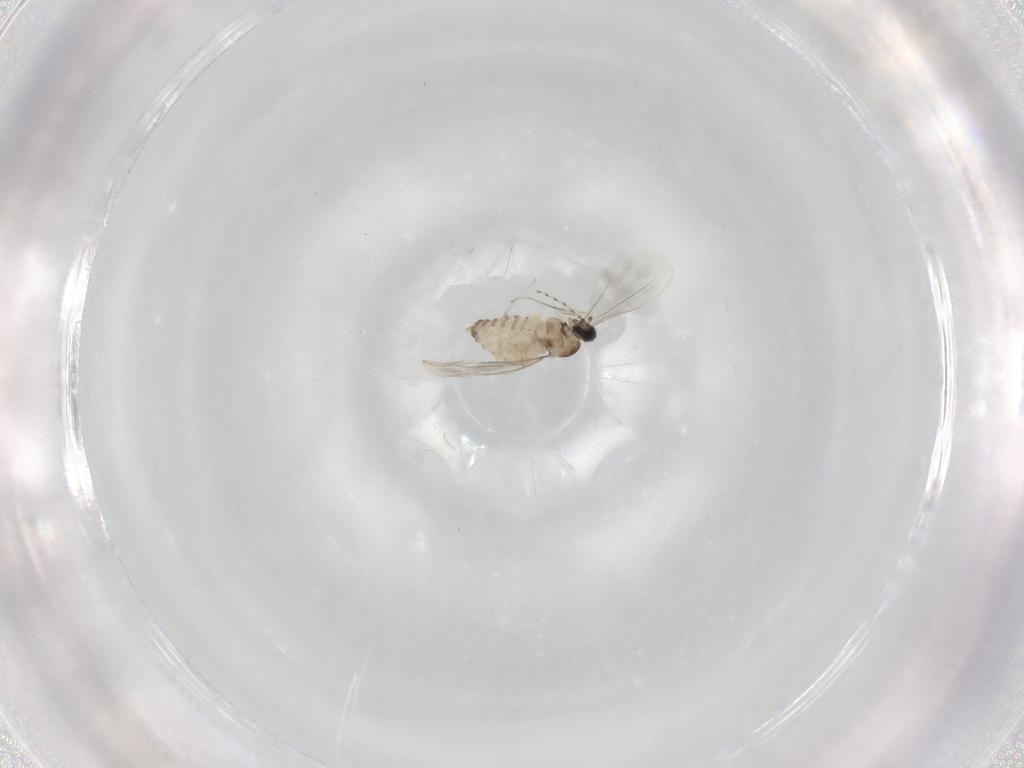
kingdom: Animalia
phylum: Arthropoda
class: Insecta
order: Diptera
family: Cecidomyiidae
